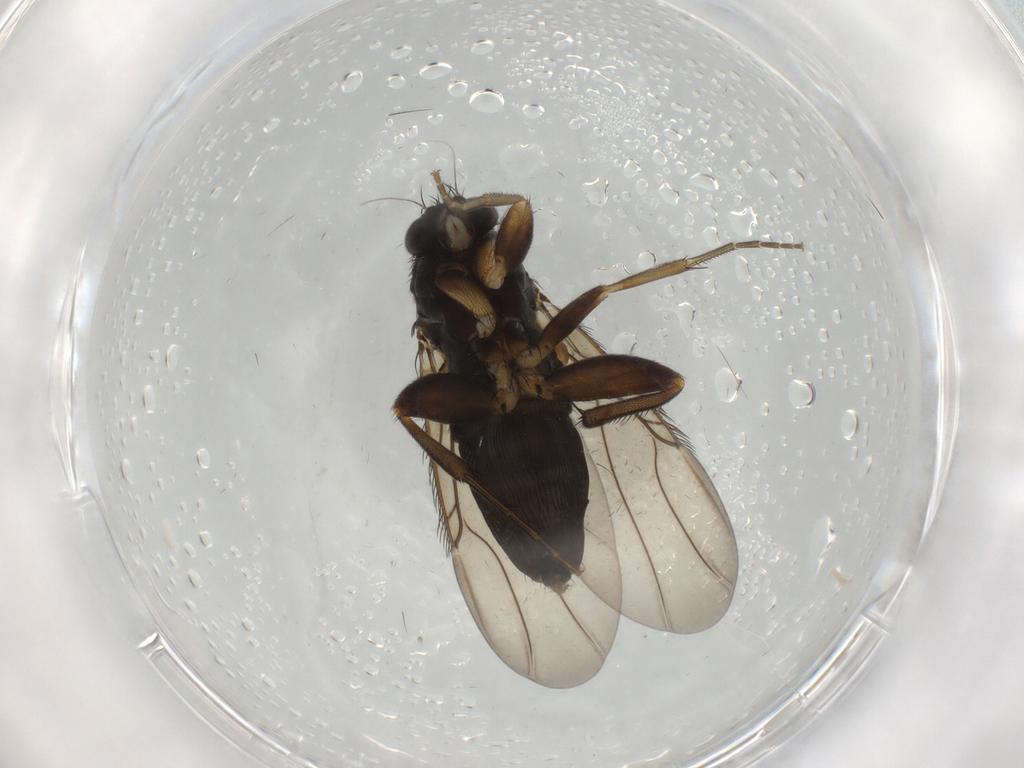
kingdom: Animalia
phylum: Arthropoda
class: Insecta
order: Diptera
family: Phoridae
